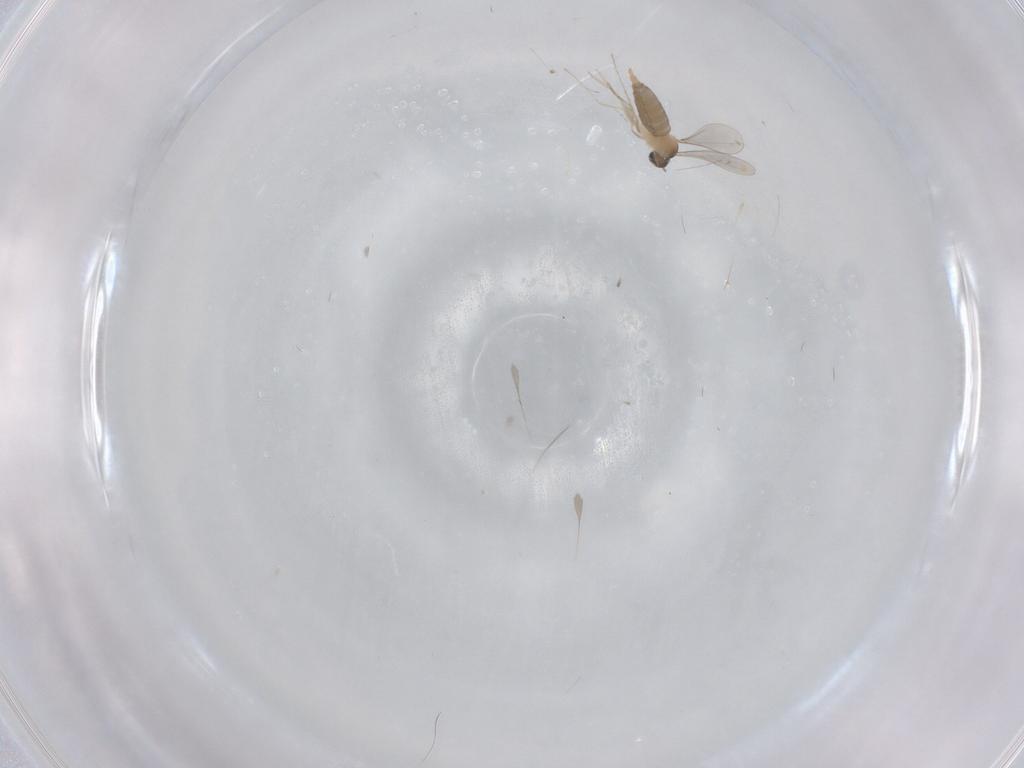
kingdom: Animalia
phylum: Arthropoda
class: Insecta
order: Diptera
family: Cecidomyiidae
